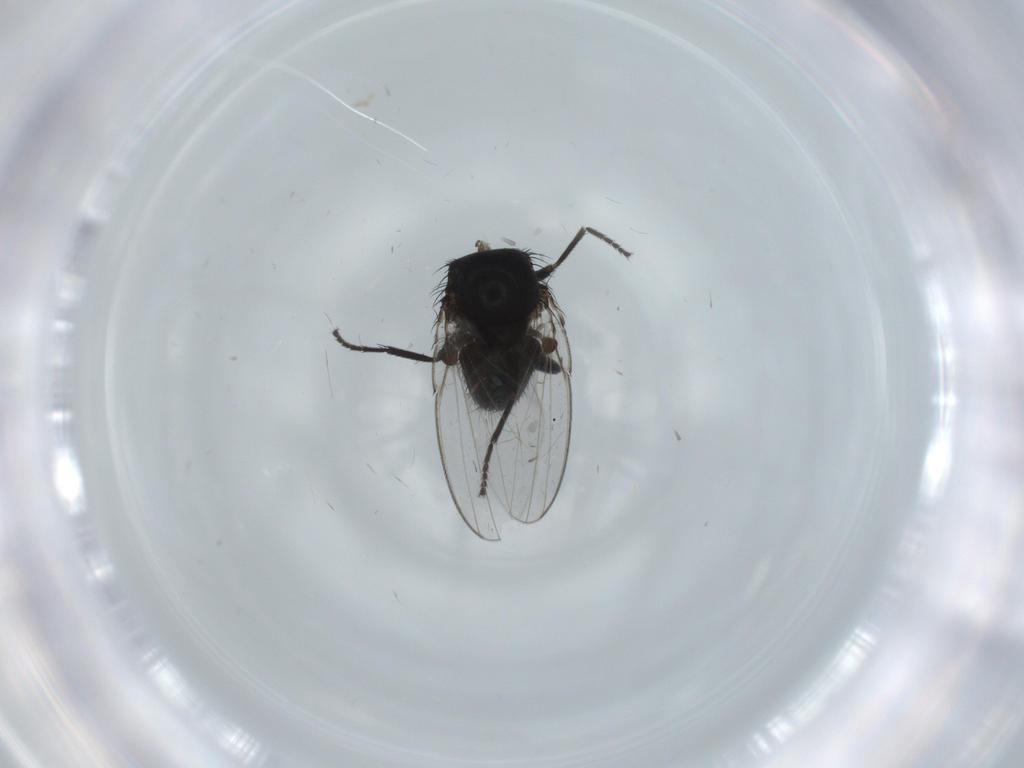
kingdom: Animalia
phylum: Arthropoda
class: Insecta
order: Diptera
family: Milichiidae
